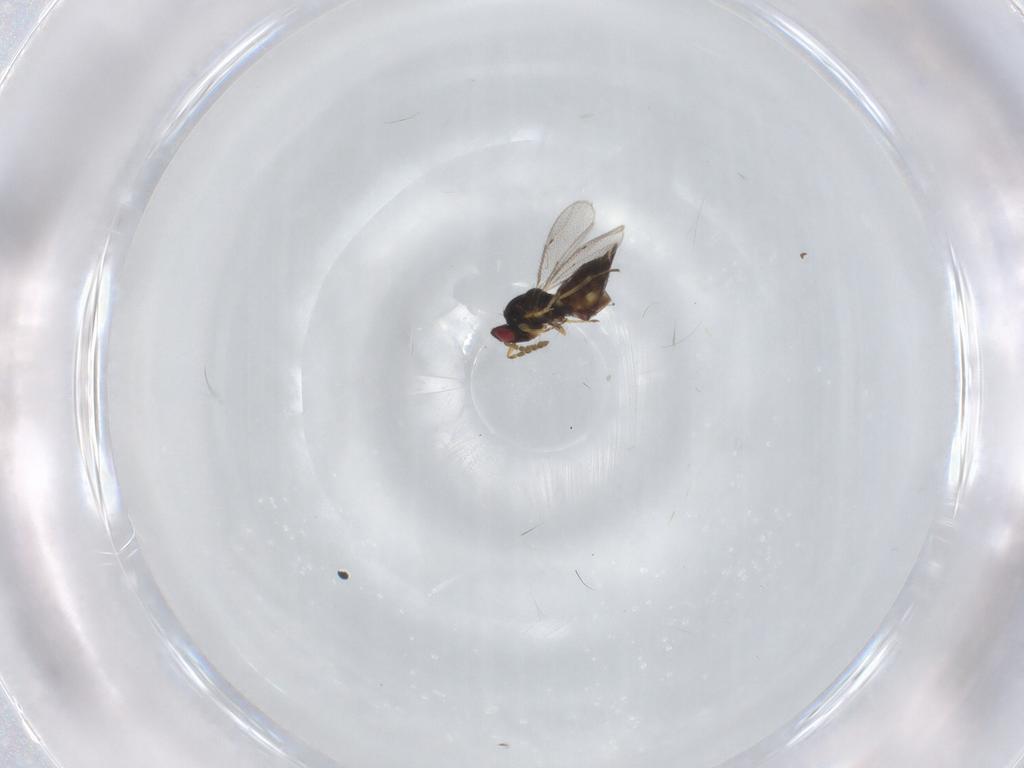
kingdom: Animalia
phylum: Arthropoda
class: Insecta
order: Hymenoptera
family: Eulophidae
